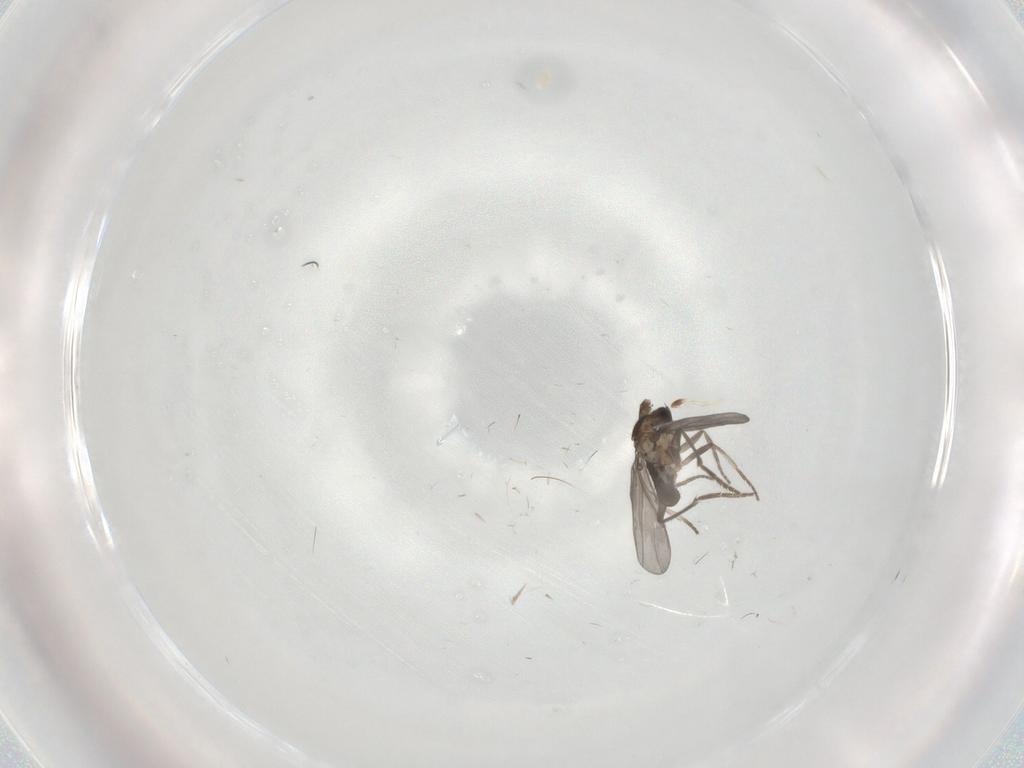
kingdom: Animalia
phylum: Arthropoda
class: Insecta
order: Diptera
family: Phoridae
